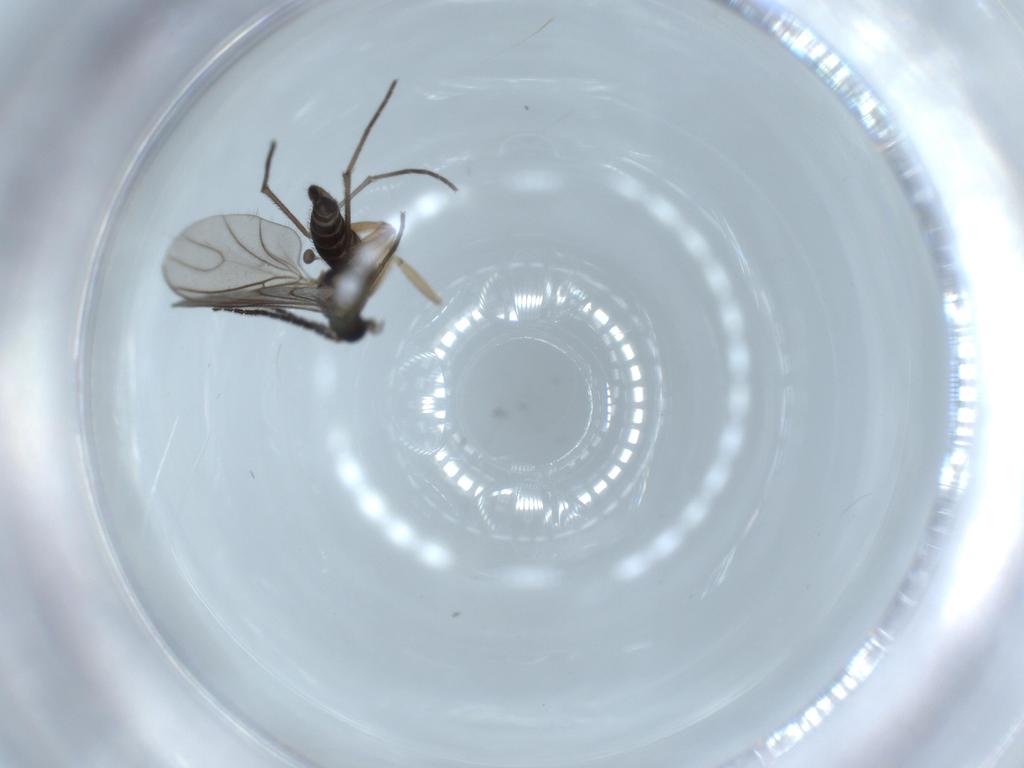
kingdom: Animalia
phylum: Arthropoda
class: Insecta
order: Diptera
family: Sciaridae
